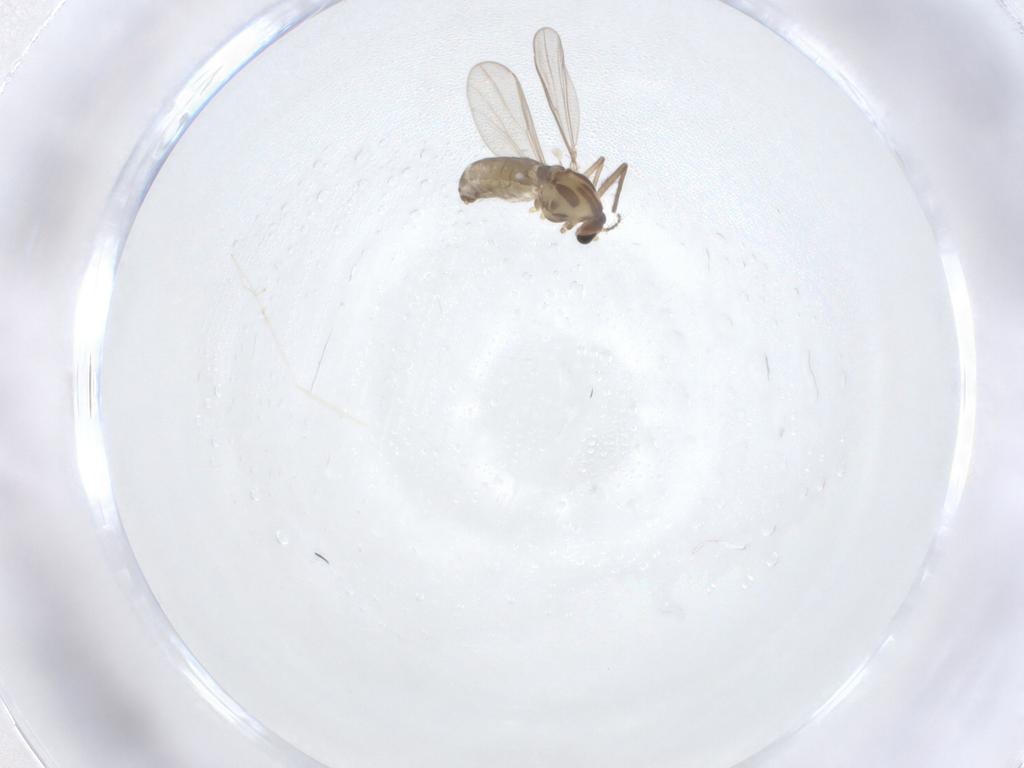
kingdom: Animalia
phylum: Arthropoda
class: Insecta
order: Diptera
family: Chironomidae
